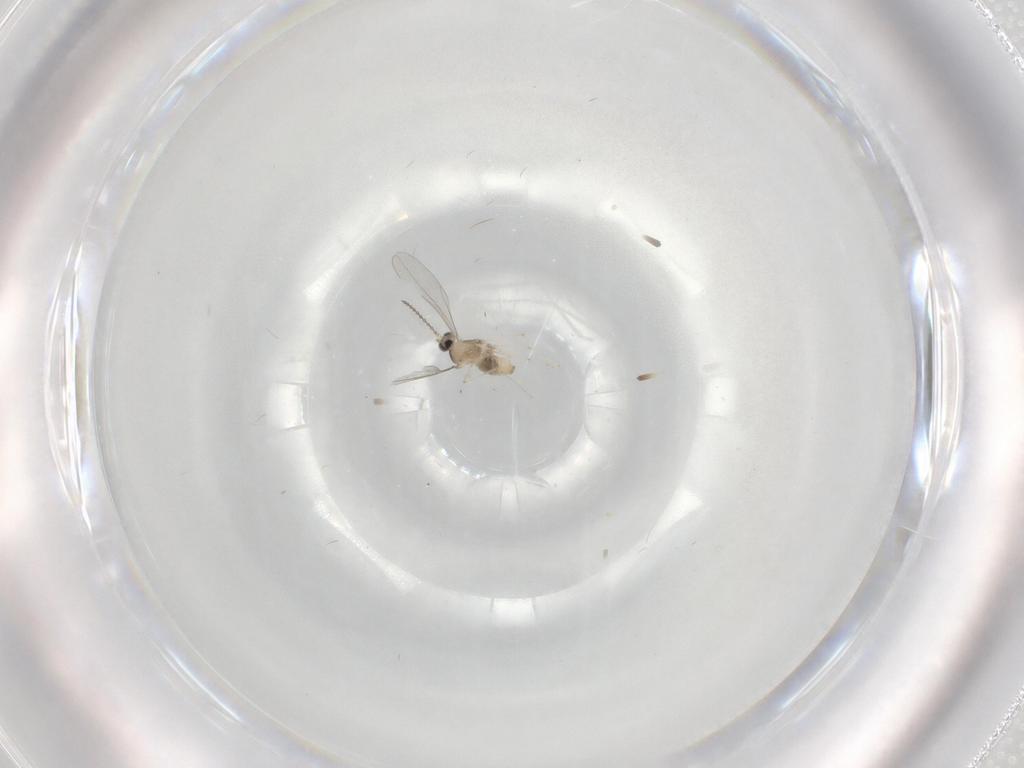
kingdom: Animalia
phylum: Arthropoda
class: Insecta
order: Diptera
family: Cecidomyiidae
